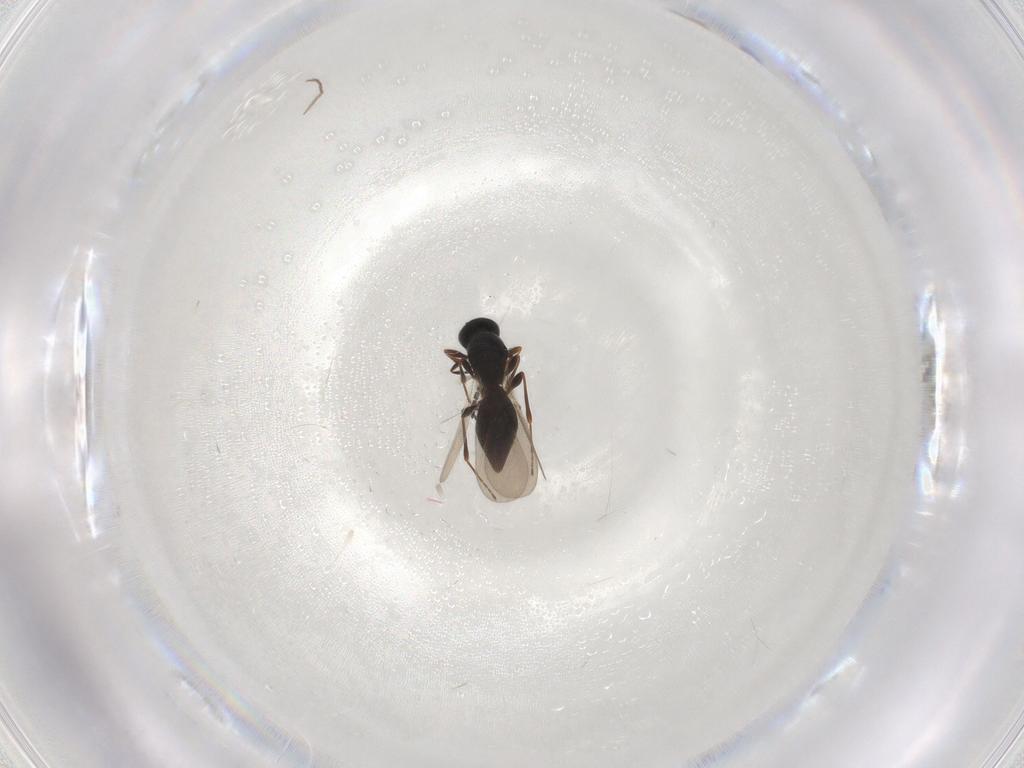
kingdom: Animalia
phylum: Arthropoda
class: Insecta
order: Hymenoptera
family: Platygastridae
